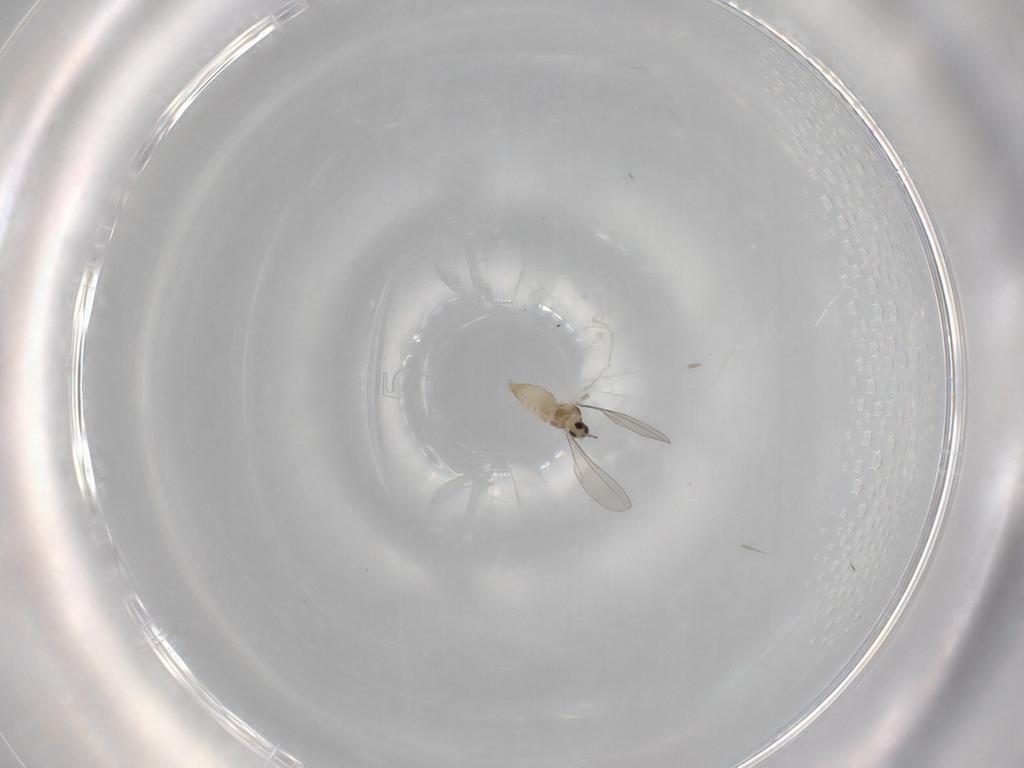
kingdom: Animalia
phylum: Arthropoda
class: Insecta
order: Diptera
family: Cecidomyiidae
